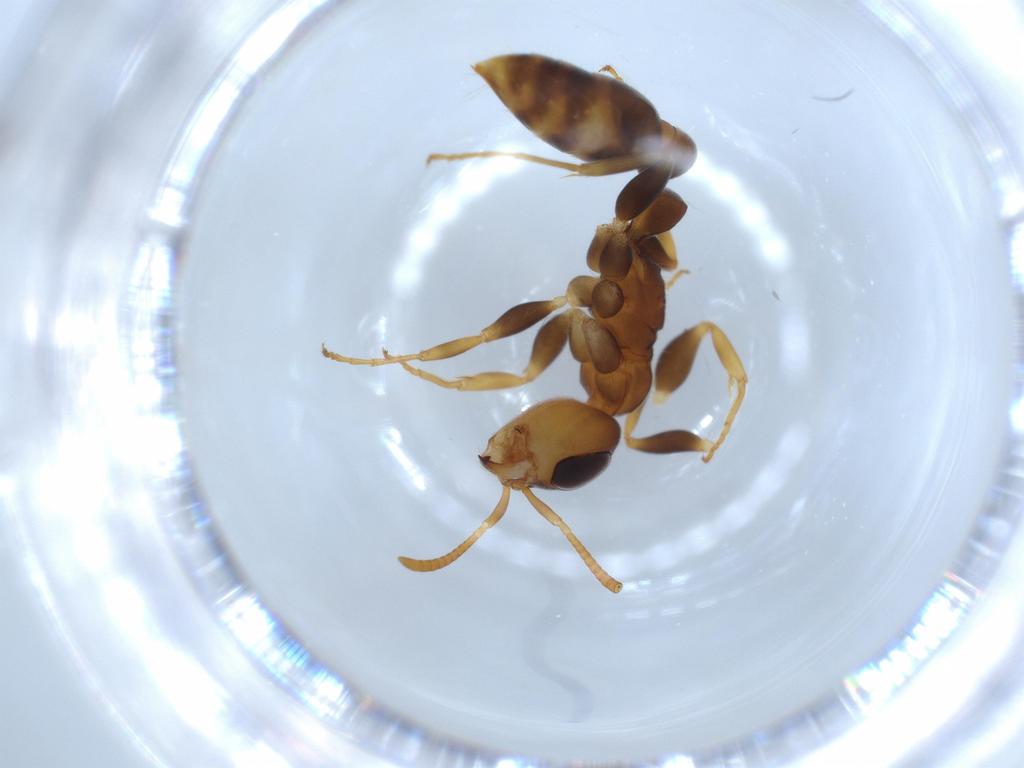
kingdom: Animalia
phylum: Arthropoda
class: Insecta
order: Hymenoptera
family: Formicidae
